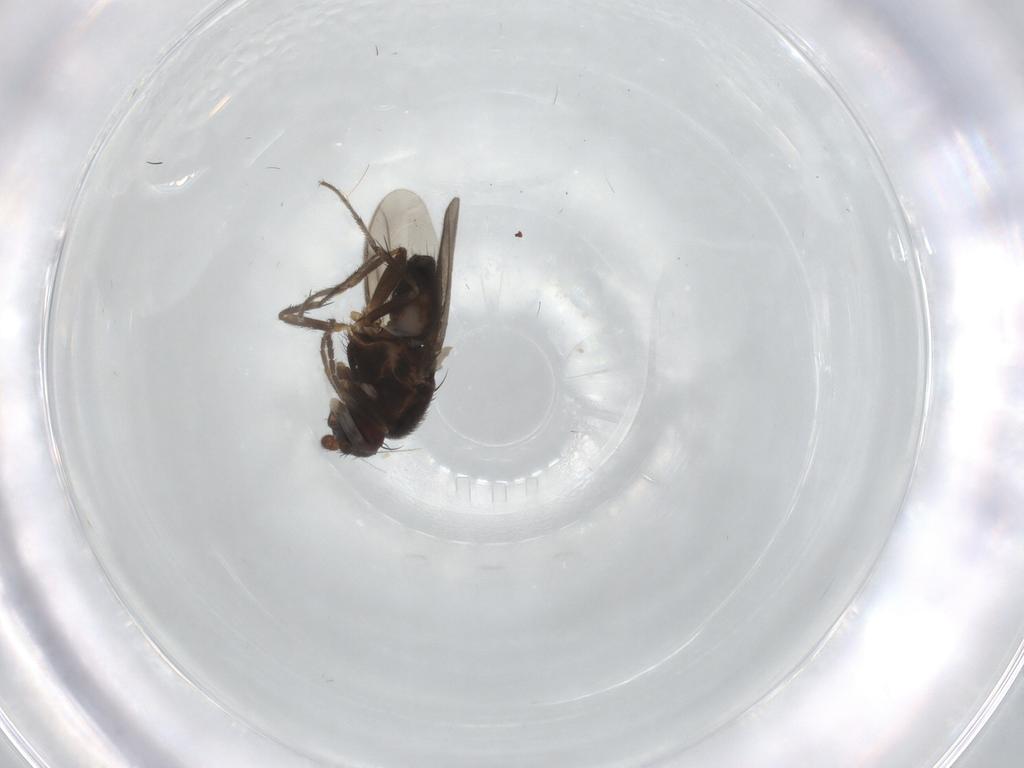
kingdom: Animalia
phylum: Arthropoda
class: Insecta
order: Diptera
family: Sphaeroceridae
